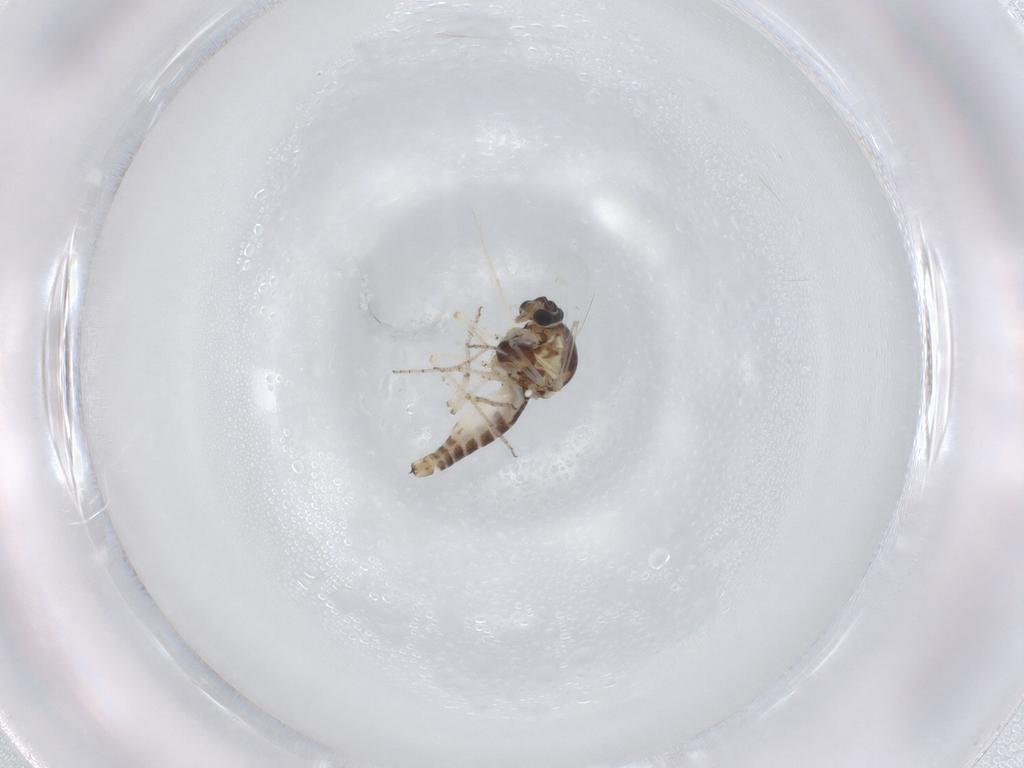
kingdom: Animalia
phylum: Arthropoda
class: Insecta
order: Diptera
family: Ceratopogonidae
